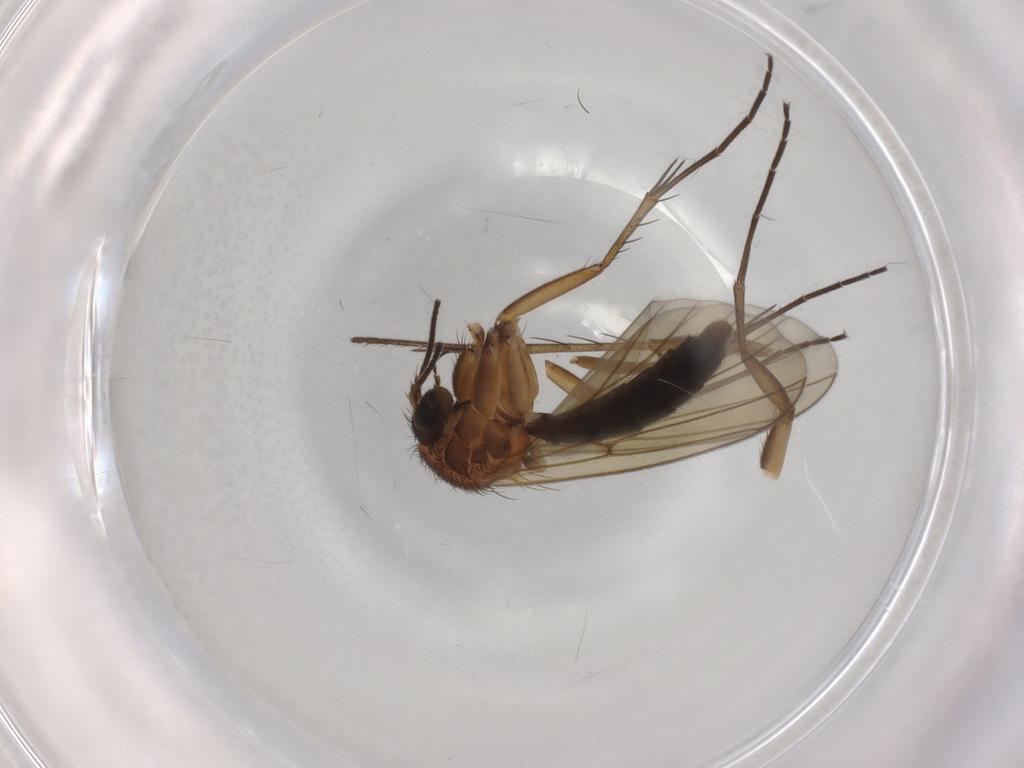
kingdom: Animalia
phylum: Arthropoda
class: Insecta
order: Diptera
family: Mycetophilidae
